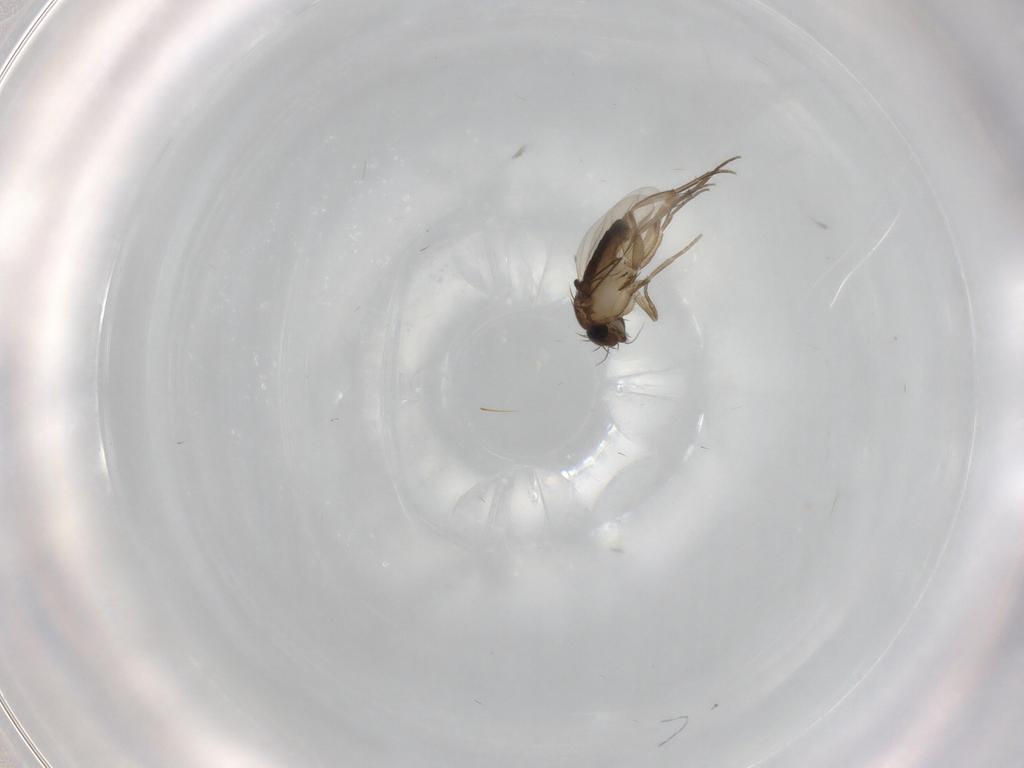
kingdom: Animalia
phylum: Arthropoda
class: Insecta
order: Diptera
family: Phoridae
